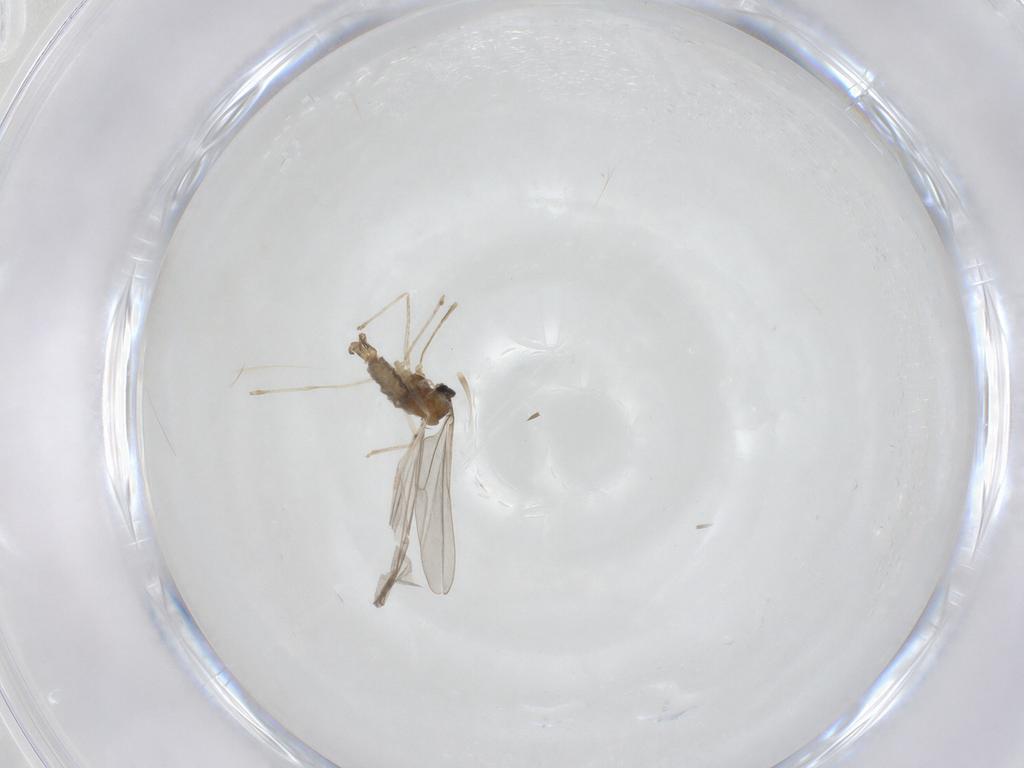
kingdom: Animalia
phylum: Arthropoda
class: Insecta
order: Diptera
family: Cecidomyiidae
